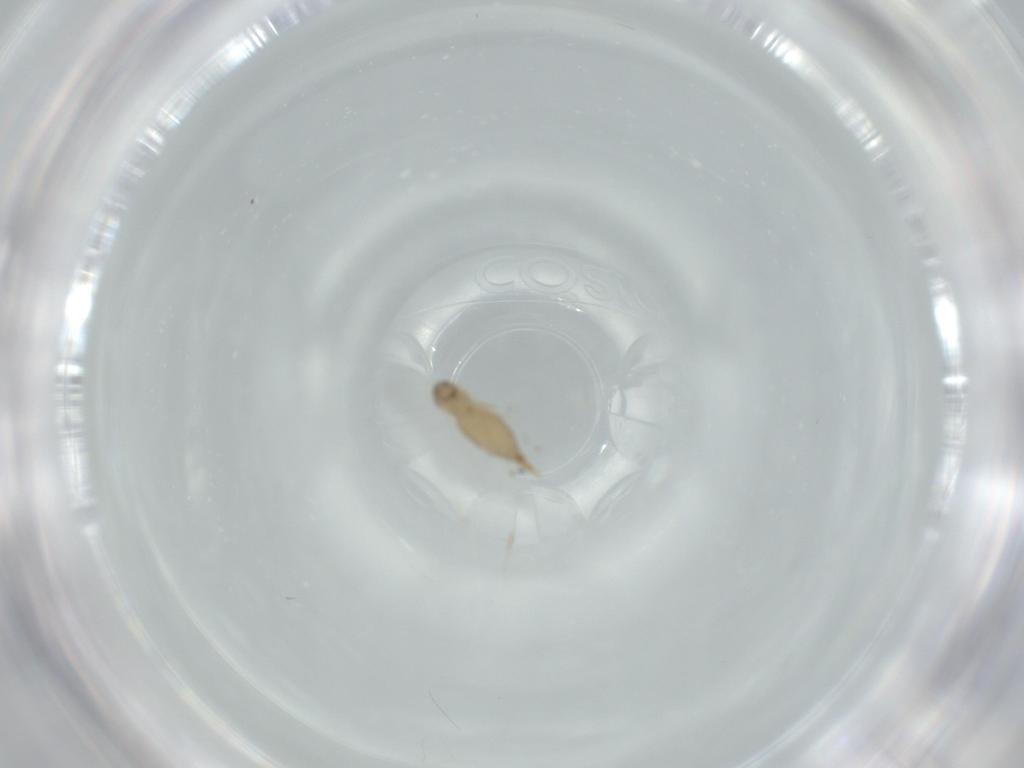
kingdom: Animalia
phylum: Arthropoda
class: Insecta
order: Diptera
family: Cecidomyiidae
